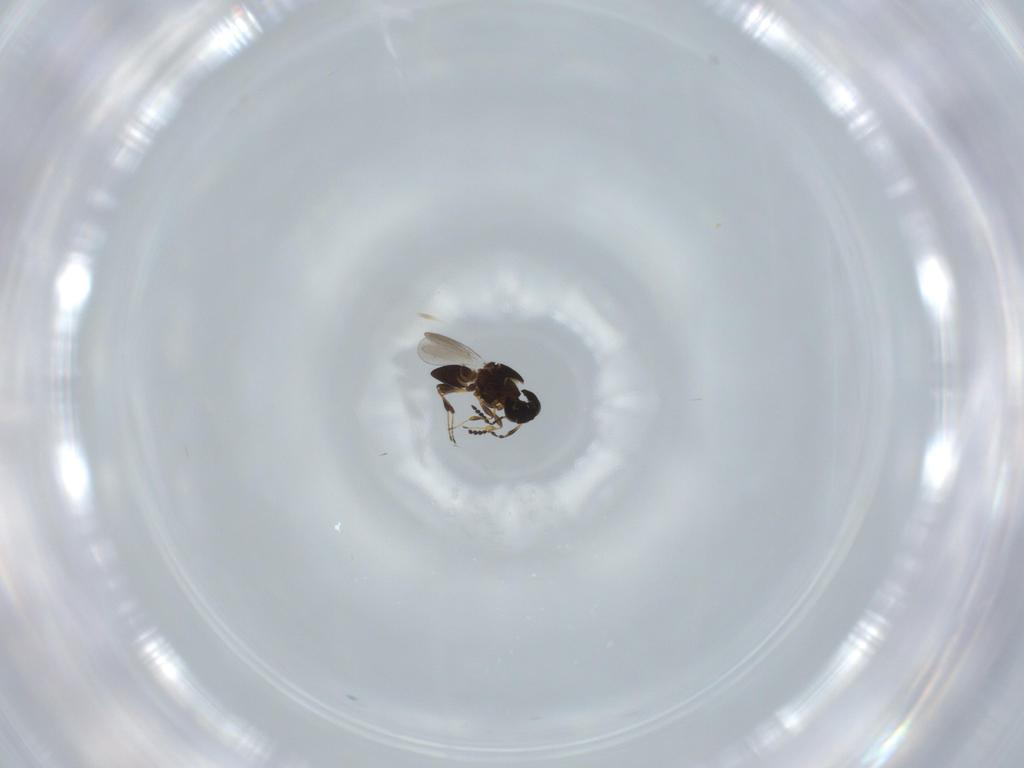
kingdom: Animalia
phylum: Arthropoda
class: Insecta
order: Hymenoptera
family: Platygastridae
